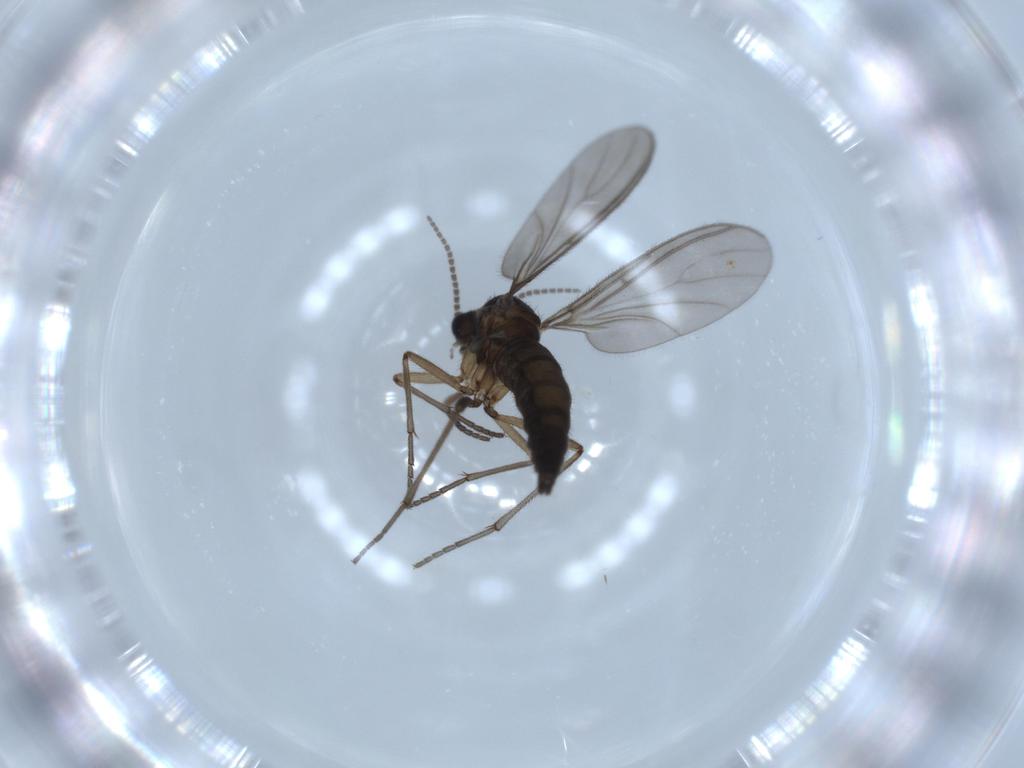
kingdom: Animalia
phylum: Arthropoda
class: Insecta
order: Diptera
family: Sciaridae
